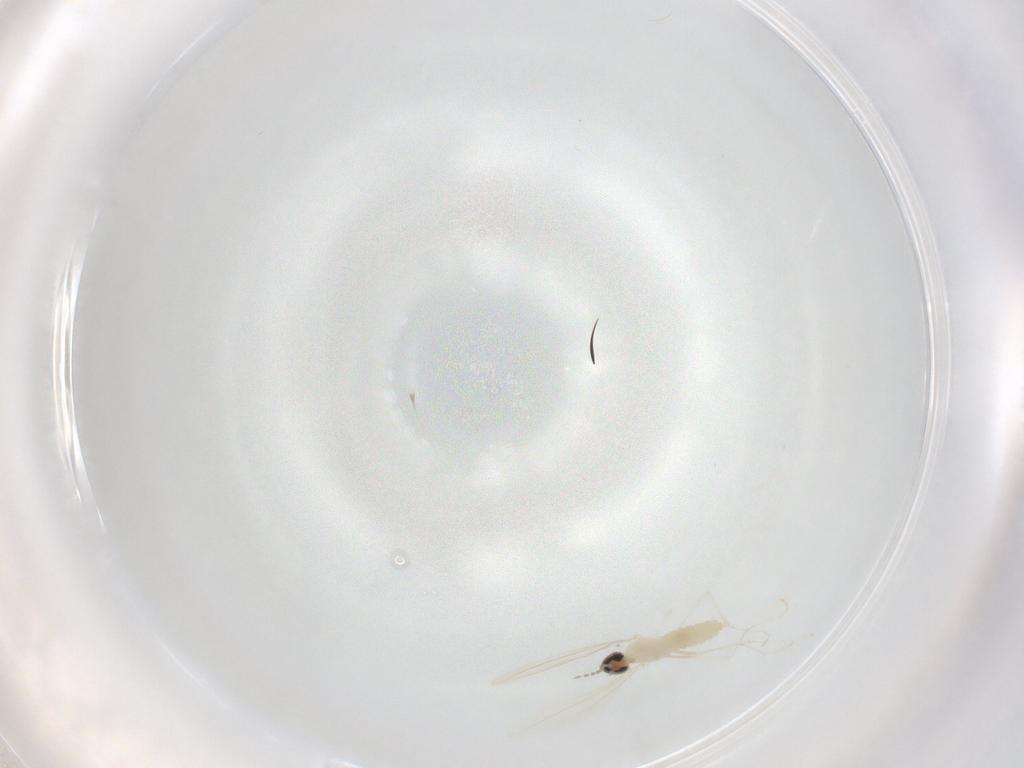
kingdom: Animalia
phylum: Arthropoda
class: Insecta
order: Diptera
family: Cecidomyiidae
